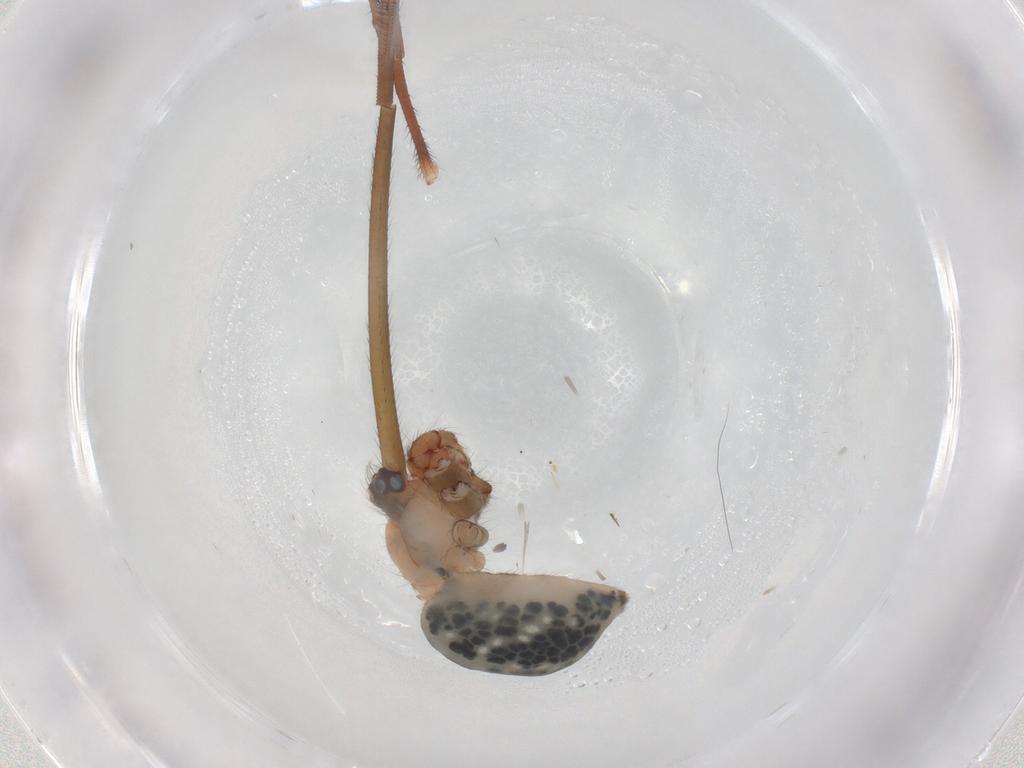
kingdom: Animalia
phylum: Arthropoda
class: Arachnida
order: Araneae
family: Pholcidae
